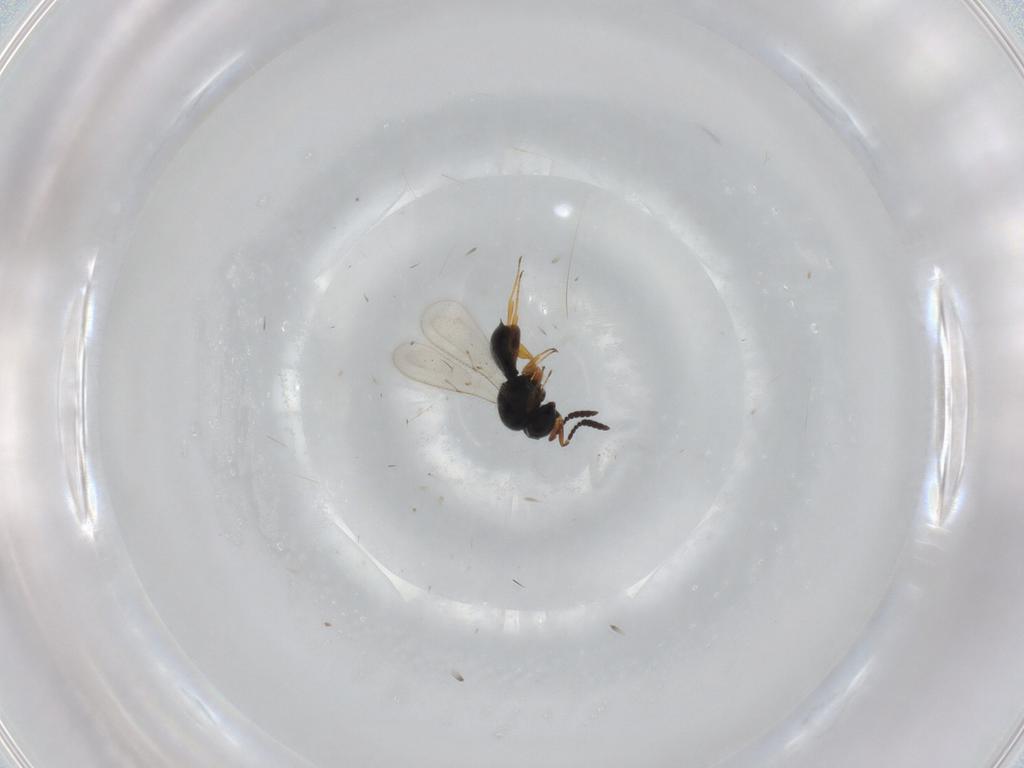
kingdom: Animalia
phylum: Arthropoda
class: Insecta
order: Hymenoptera
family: Scelionidae
